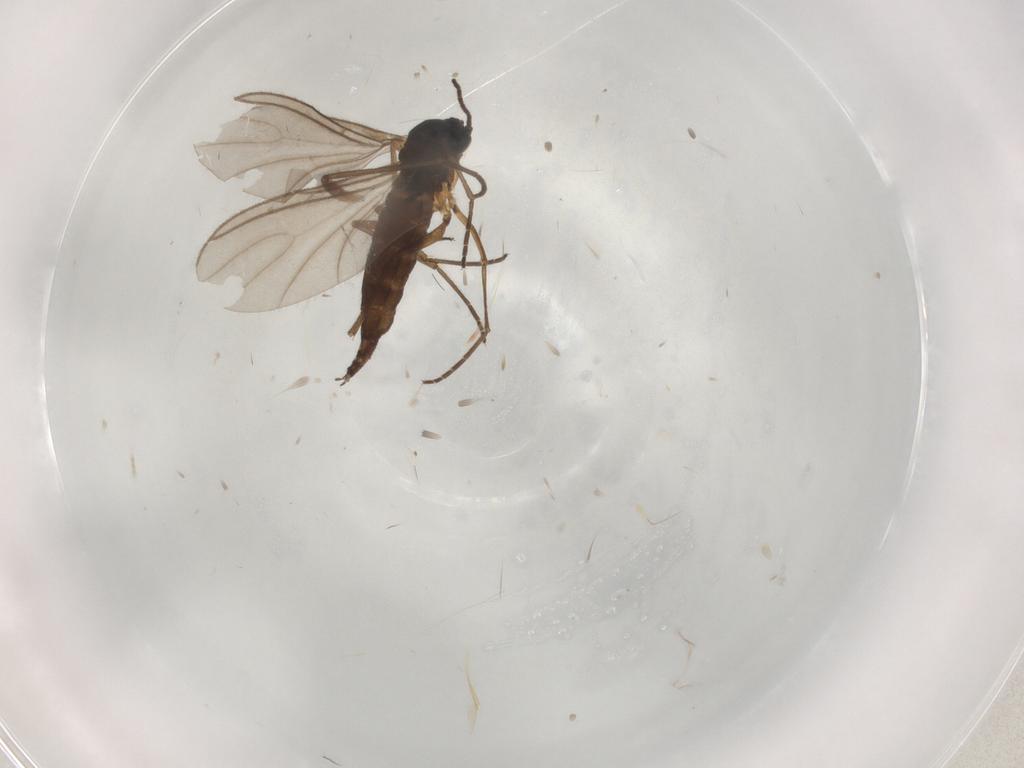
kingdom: Animalia
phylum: Arthropoda
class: Insecta
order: Diptera
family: Sciaridae
